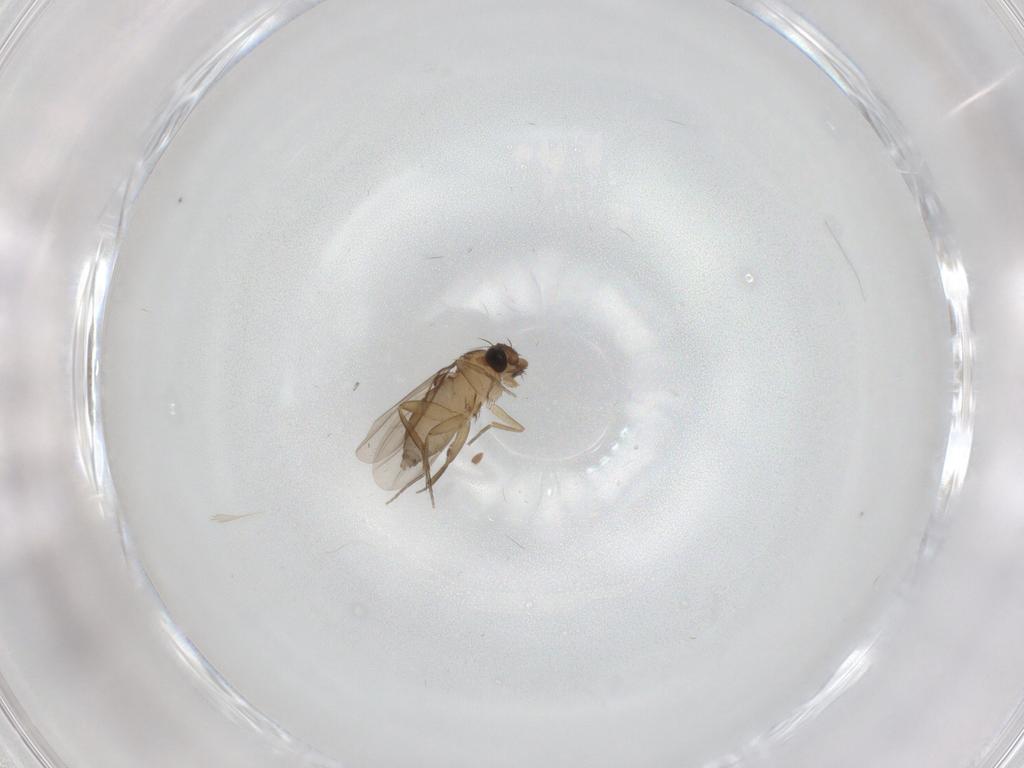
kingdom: Animalia
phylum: Arthropoda
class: Insecta
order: Diptera
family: Phoridae
